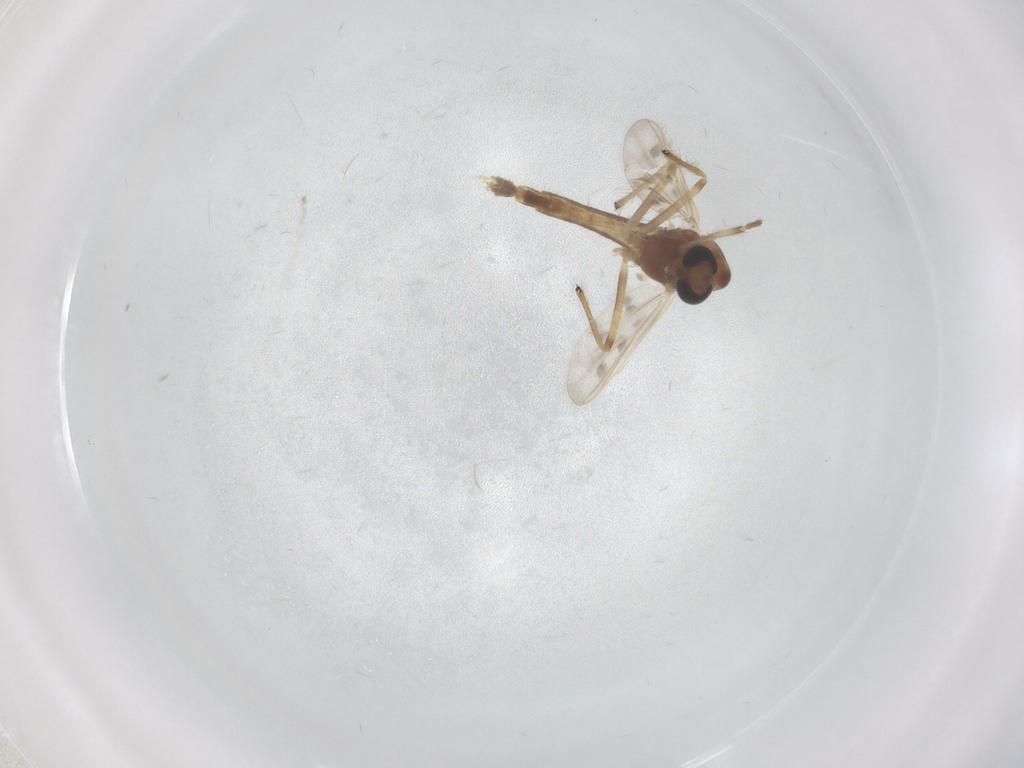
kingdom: Animalia
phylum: Arthropoda
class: Insecta
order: Diptera
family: Chironomidae
